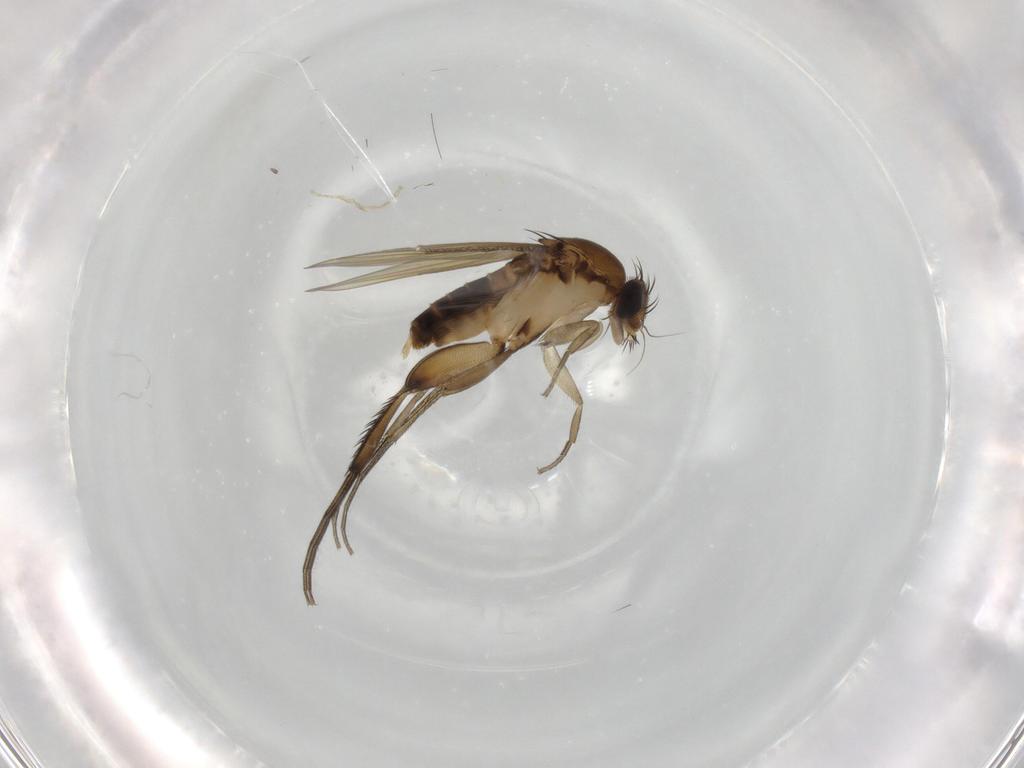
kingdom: Animalia
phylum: Arthropoda
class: Insecta
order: Diptera
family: Phoridae
